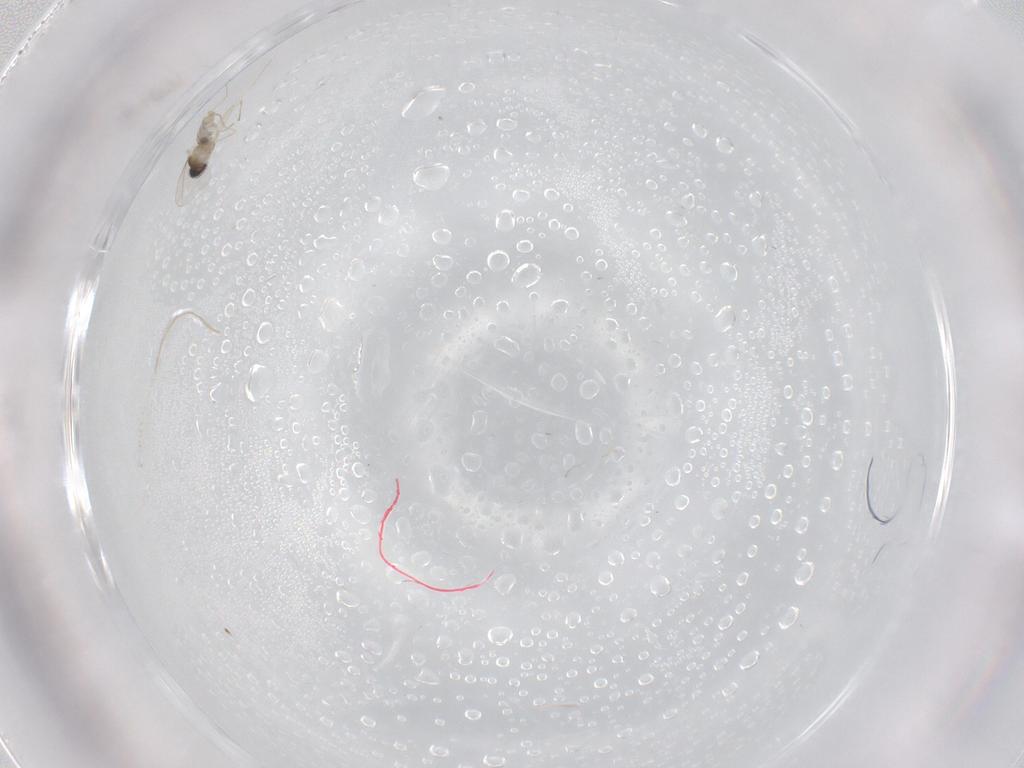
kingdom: Animalia
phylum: Arthropoda
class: Insecta
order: Diptera
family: Cecidomyiidae
